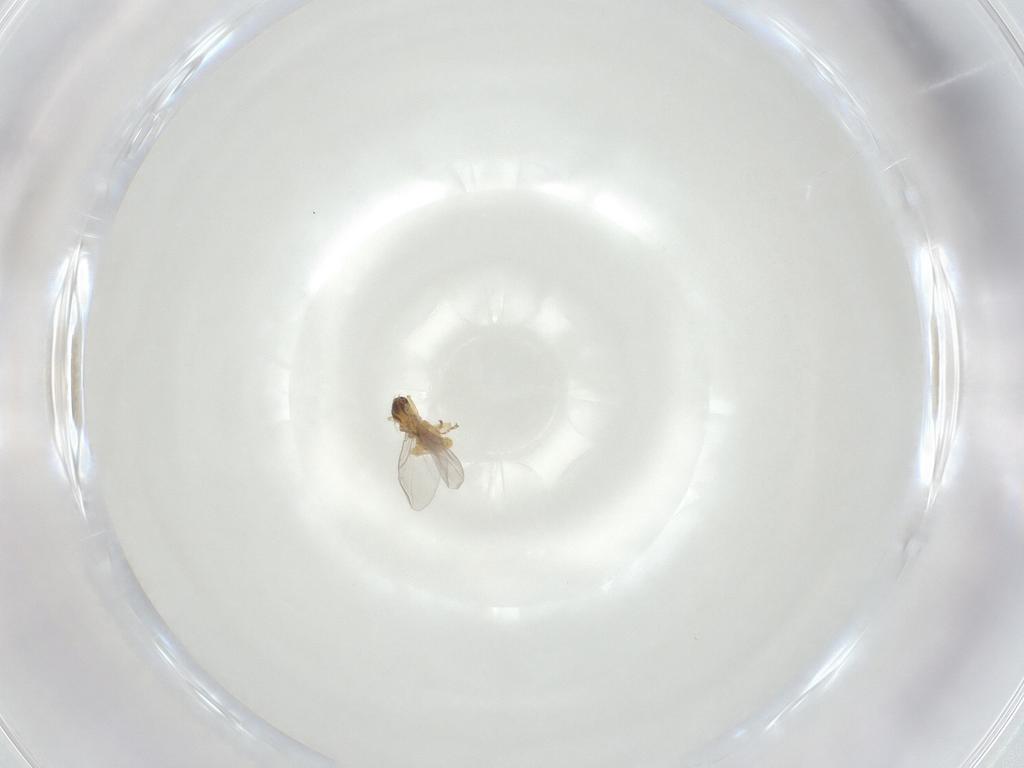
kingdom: Animalia
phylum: Arthropoda
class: Insecta
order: Diptera
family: Agromyzidae
